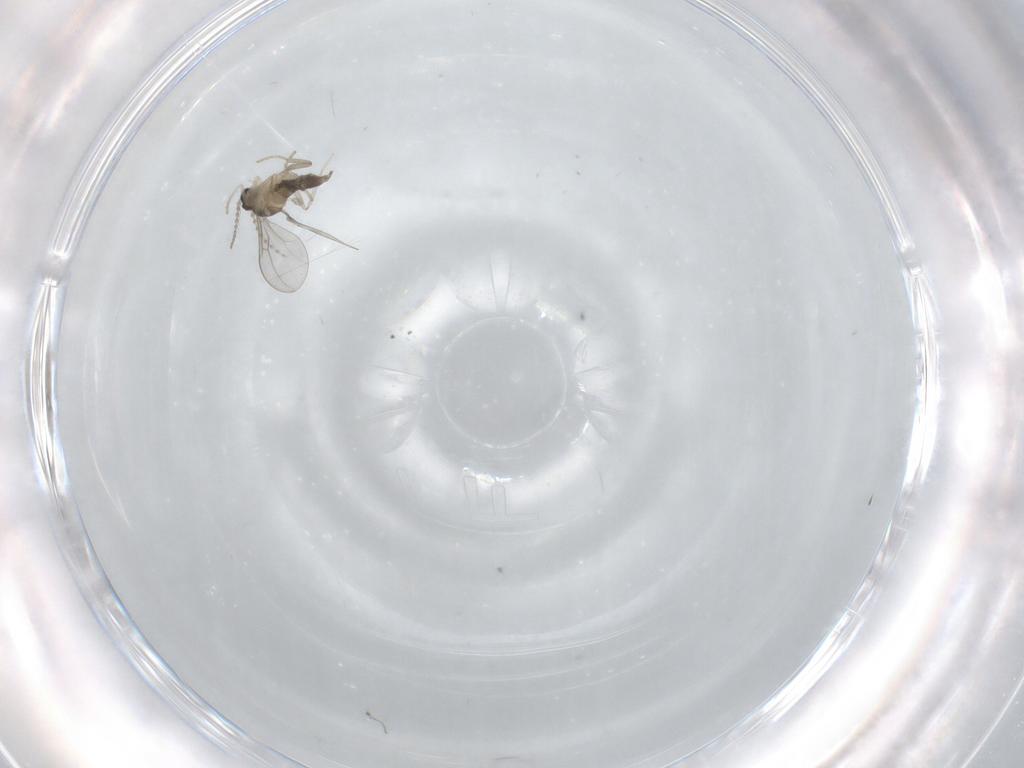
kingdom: Animalia
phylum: Arthropoda
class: Insecta
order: Diptera
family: Cecidomyiidae
